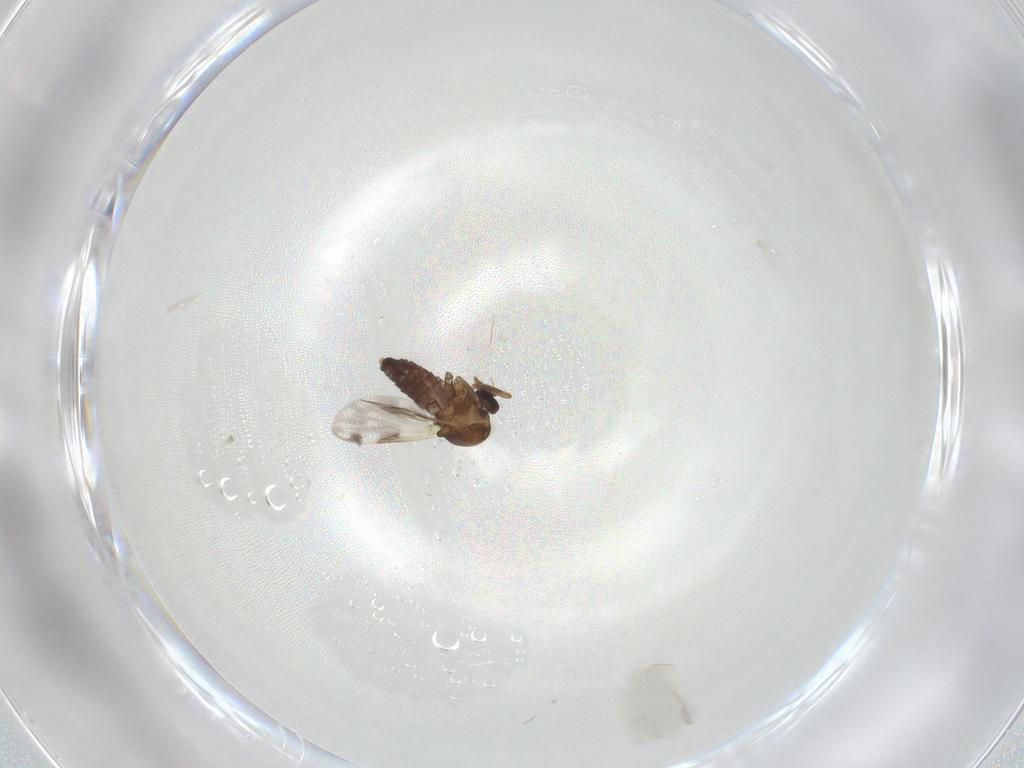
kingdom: Animalia
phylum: Arthropoda
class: Insecta
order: Diptera
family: Ceratopogonidae
